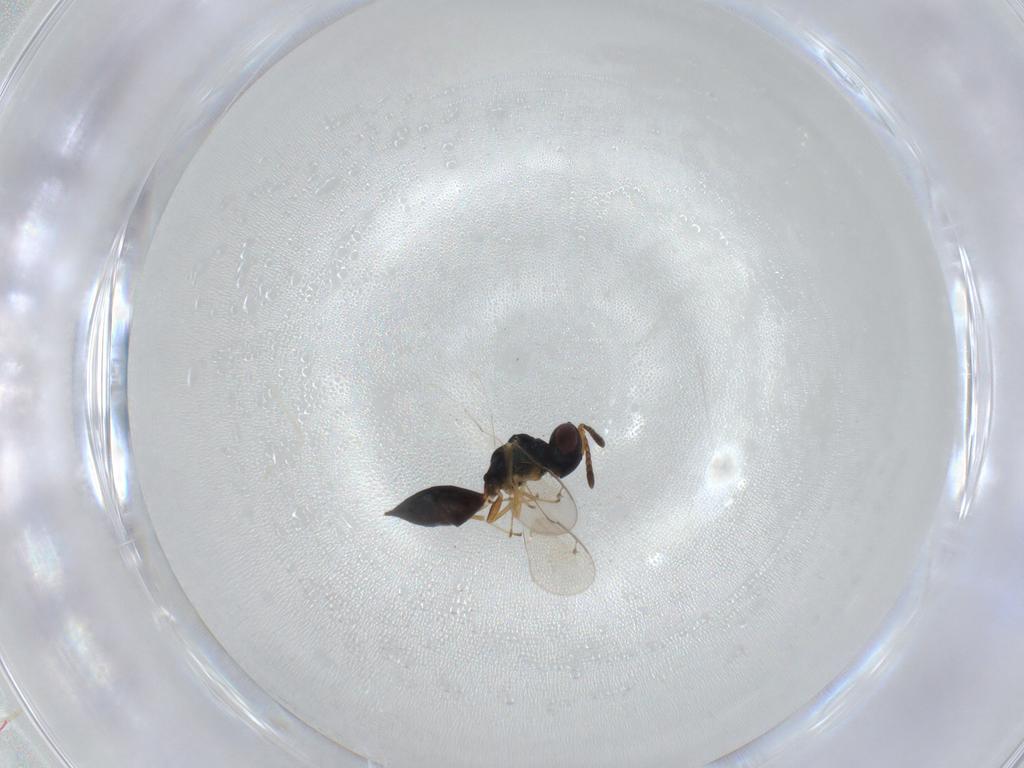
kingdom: Animalia
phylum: Arthropoda
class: Insecta
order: Hymenoptera
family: Pteromalidae
